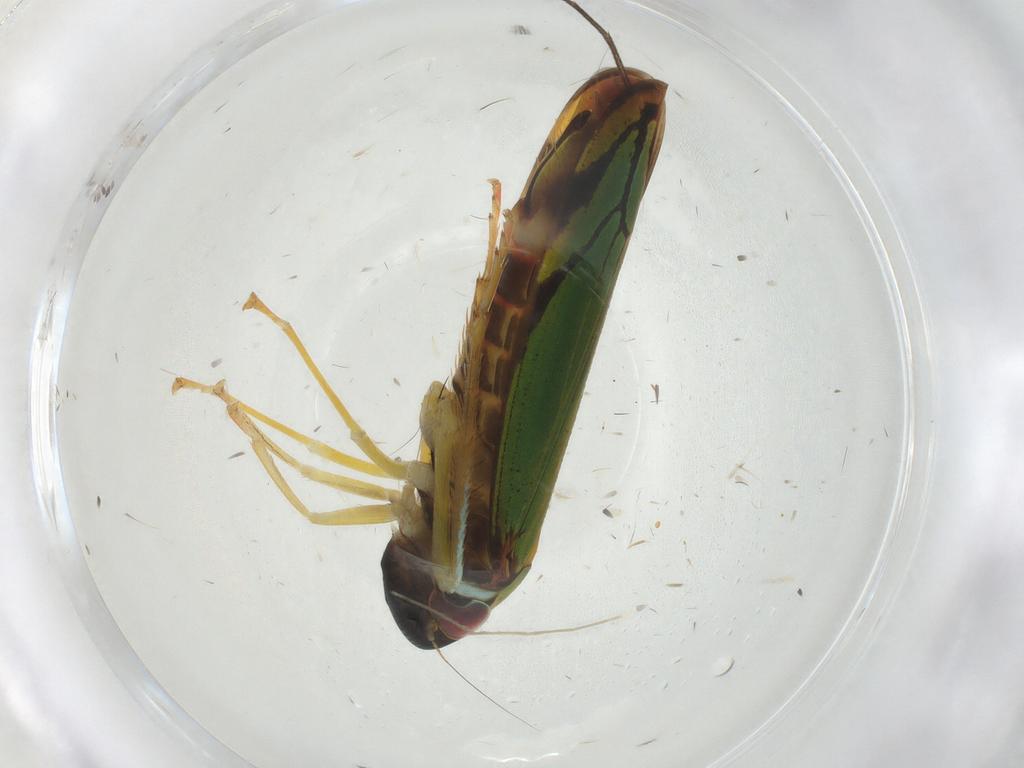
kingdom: Animalia
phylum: Arthropoda
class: Insecta
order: Hemiptera
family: Cicadellidae
